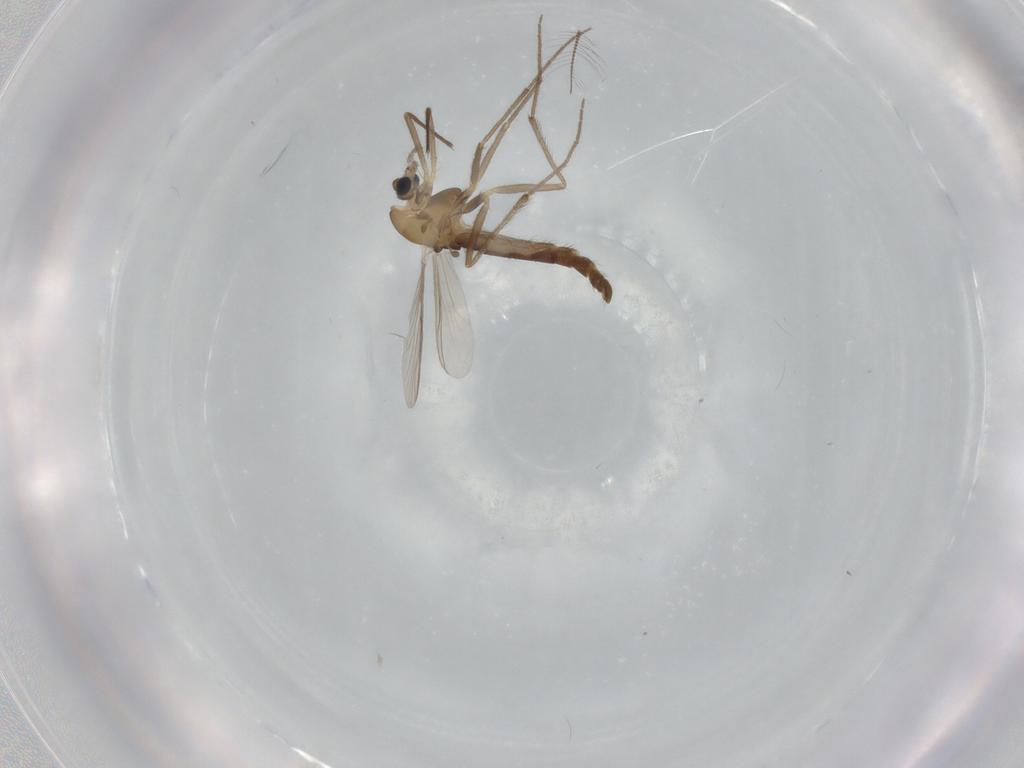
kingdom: Animalia
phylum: Arthropoda
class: Insecta
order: Diptera
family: Chironomidae
